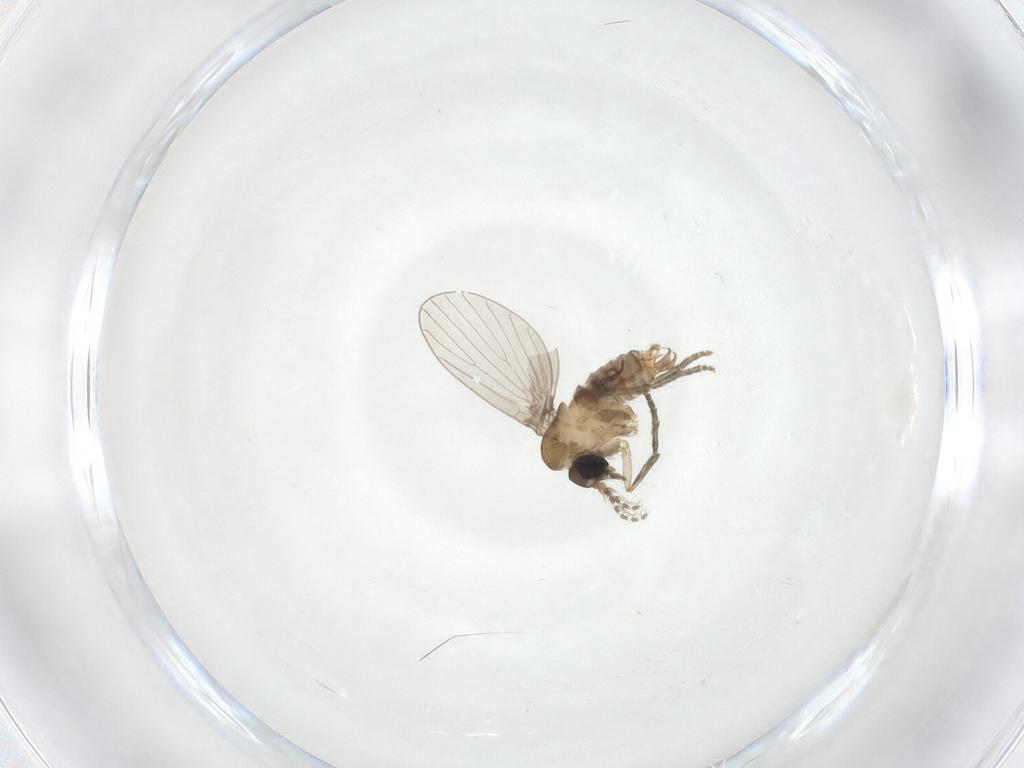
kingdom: Animalia
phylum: Arthropoda
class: Insecta
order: Diptera
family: Psychodidae
